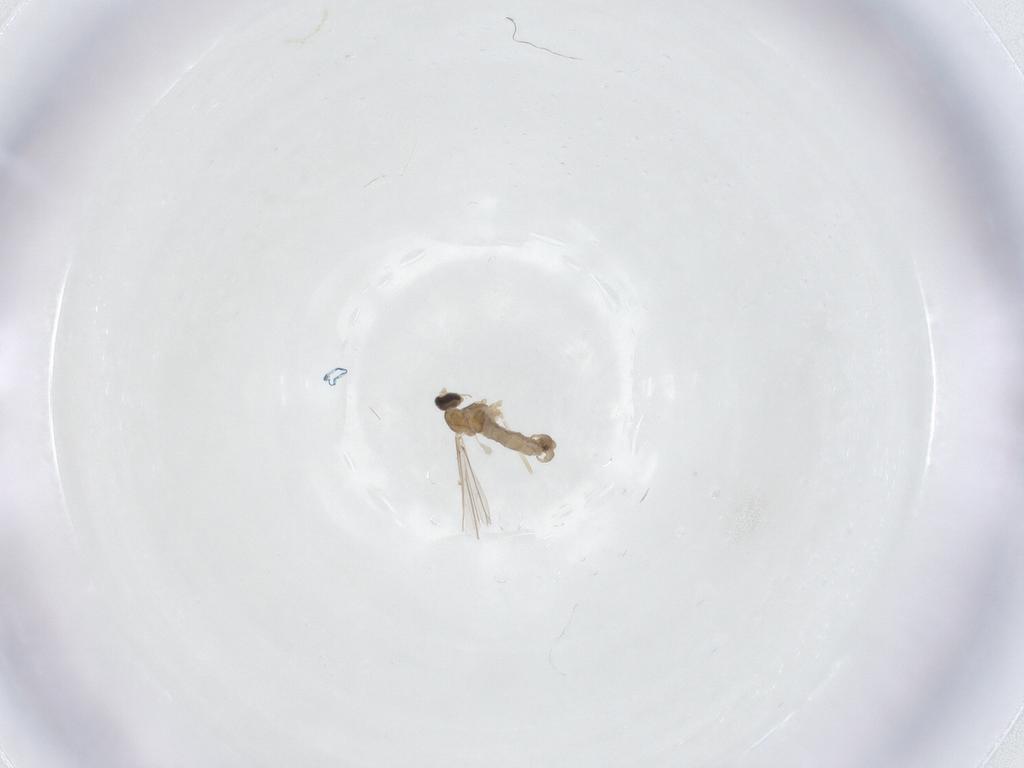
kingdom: Animalia
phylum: Arthropoda
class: Insecta
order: Diptera
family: Cecidomyiidae
